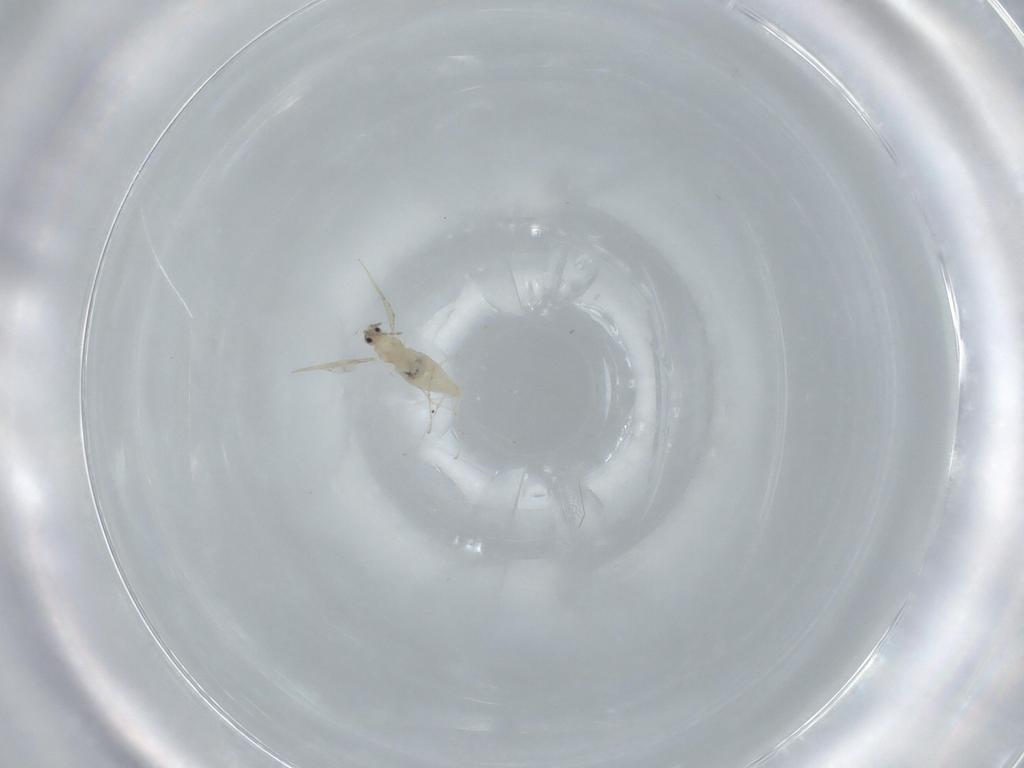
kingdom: Animalia
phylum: Arthropoda
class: Insecta
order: Diptera
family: Cecidomyiidae
